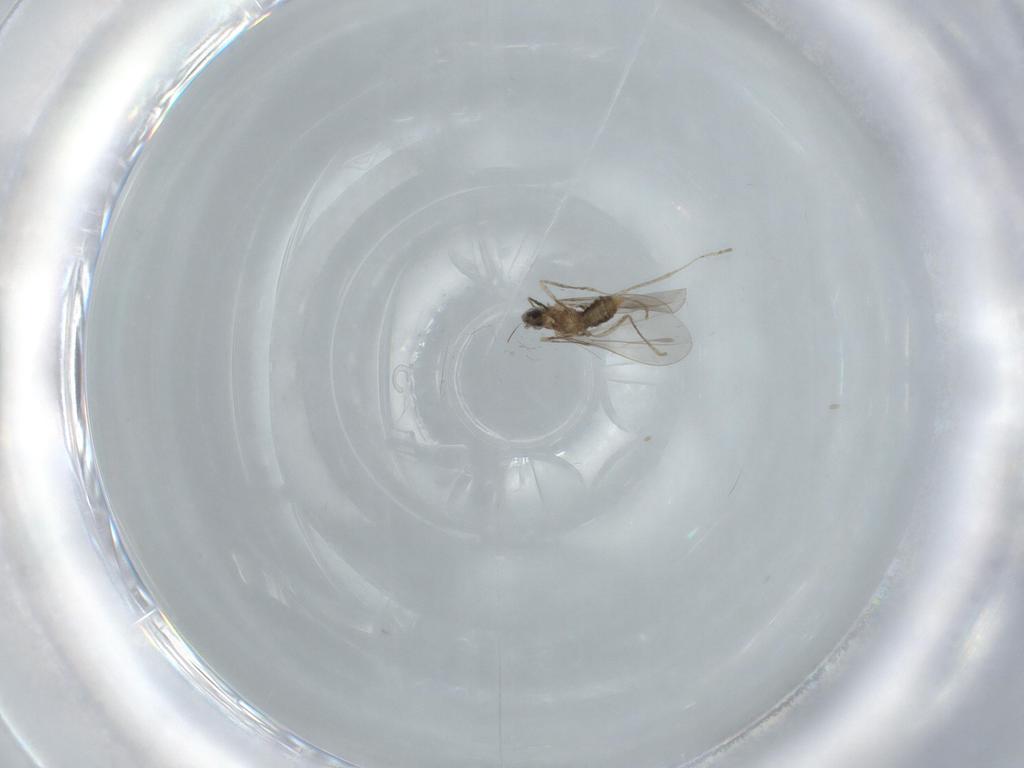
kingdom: Animalia
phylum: Arthropoda
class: Insecta
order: Diptera
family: Cecidomyiidae
